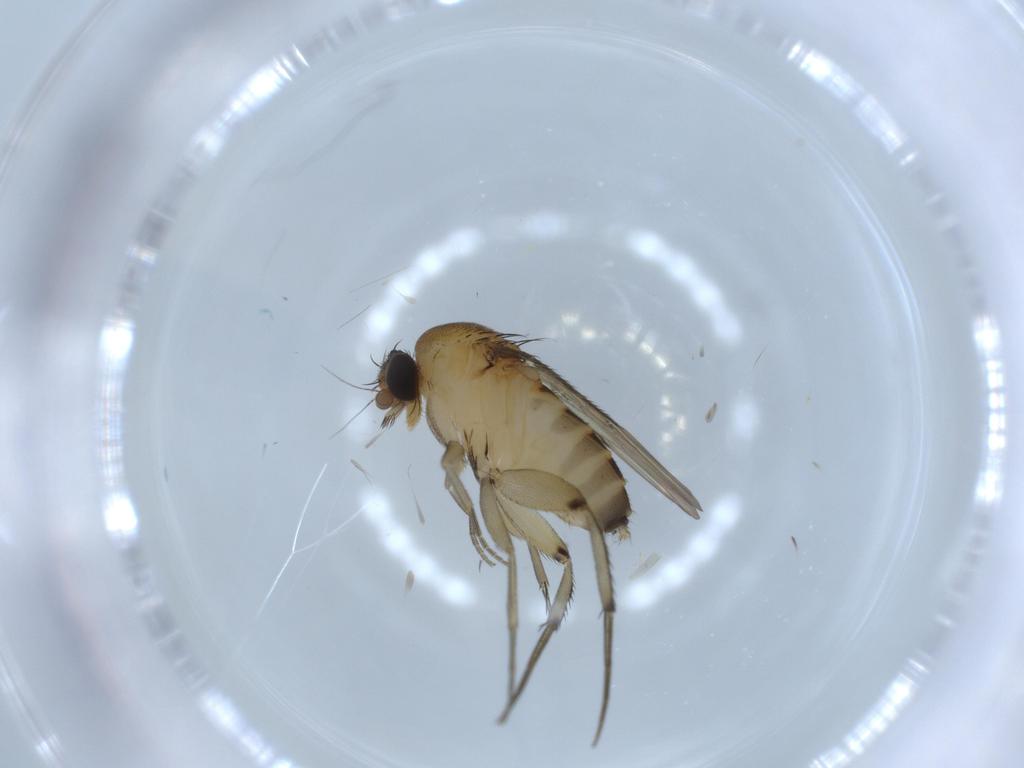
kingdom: Animalia
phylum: Arthropoda
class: Insecta
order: Diptera
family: Phoridae
